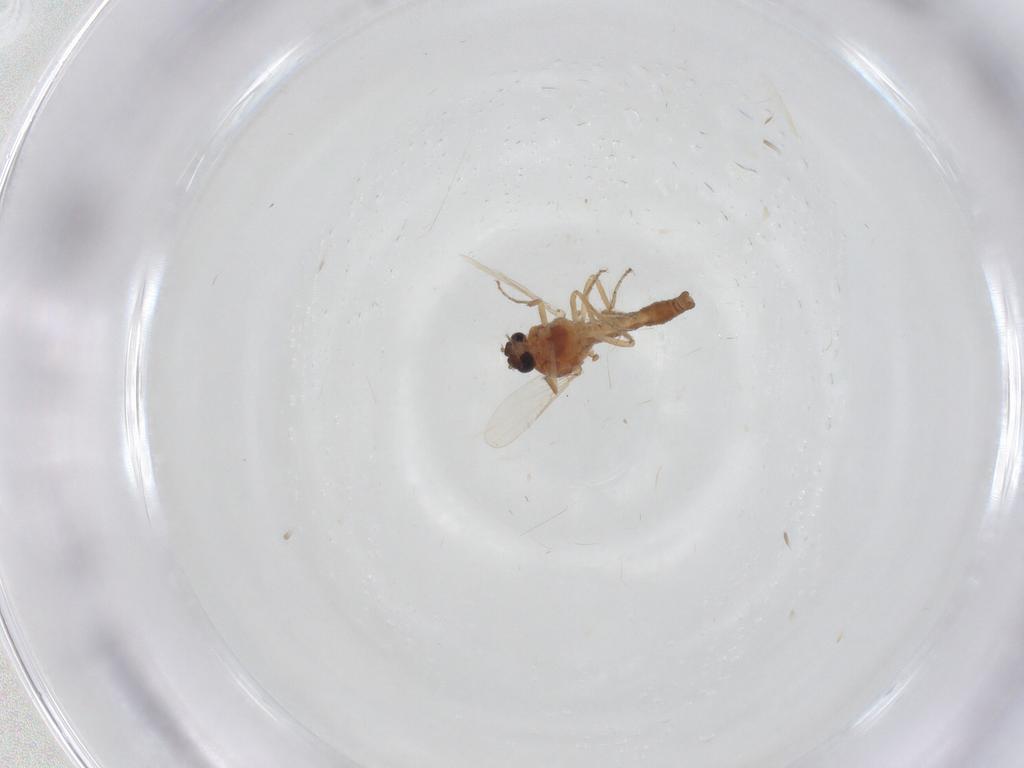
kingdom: Animalia
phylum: Arthropoda
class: Insecta
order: Diptera
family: Ceratopogonidae
